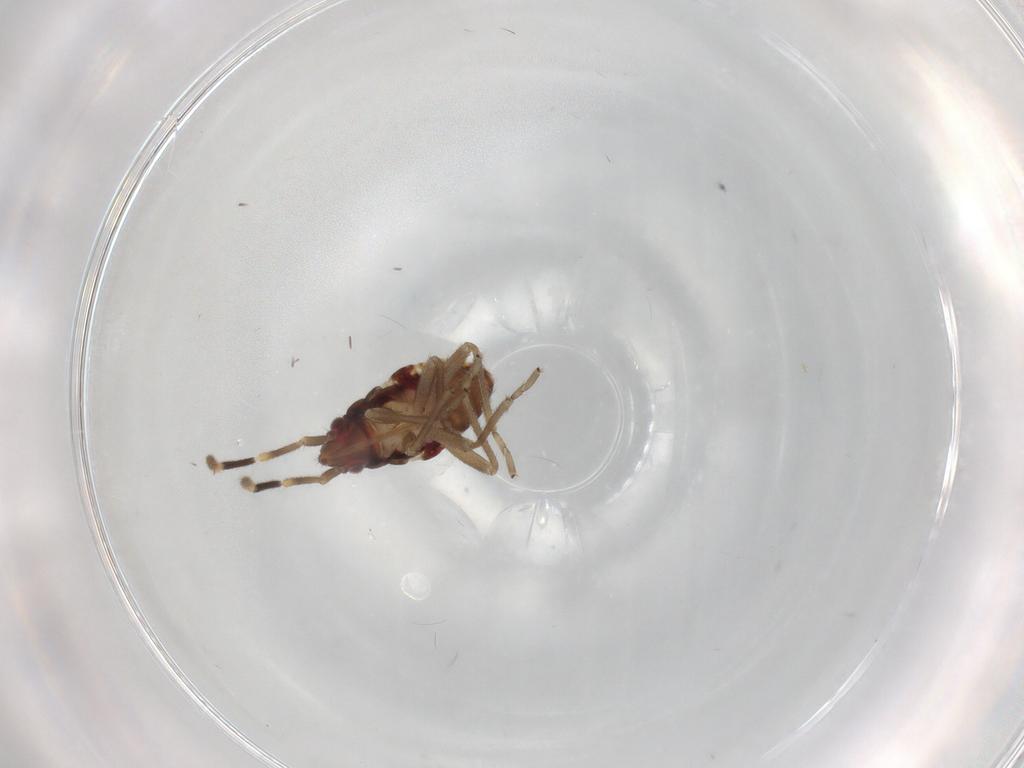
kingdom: Animalia
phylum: Arthropoda
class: Insecta
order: Hemiptera
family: Rhyparochromidae
